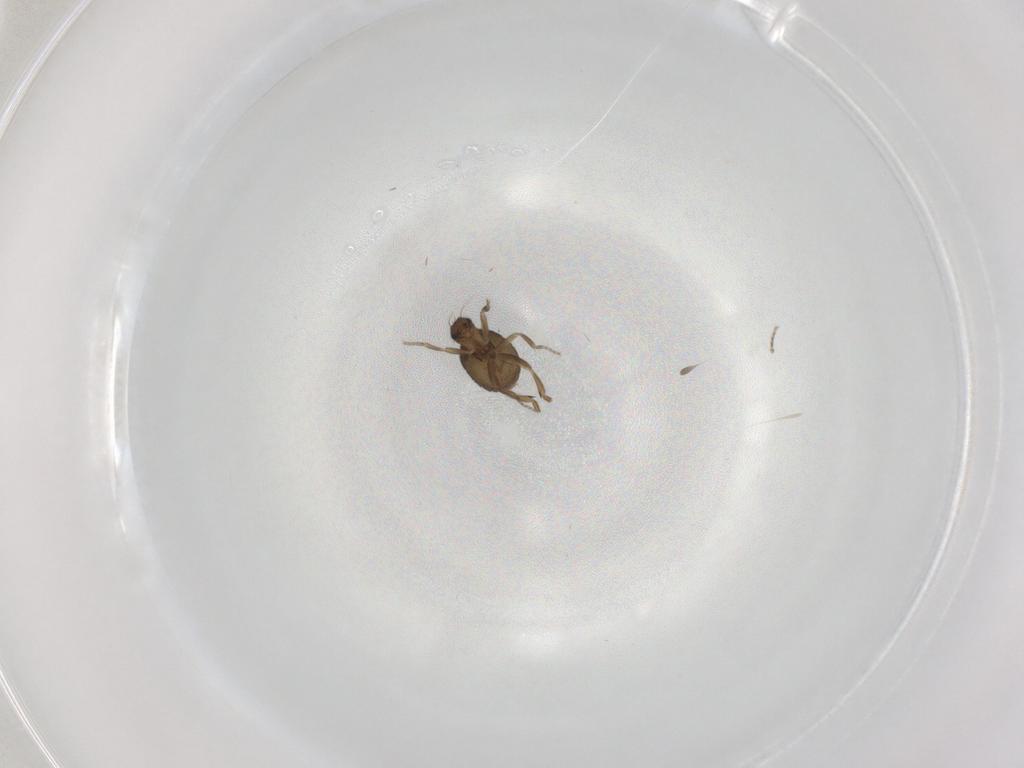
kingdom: Animalia
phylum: Arthropoda
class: Insecta
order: Diptera
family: Phoridae
